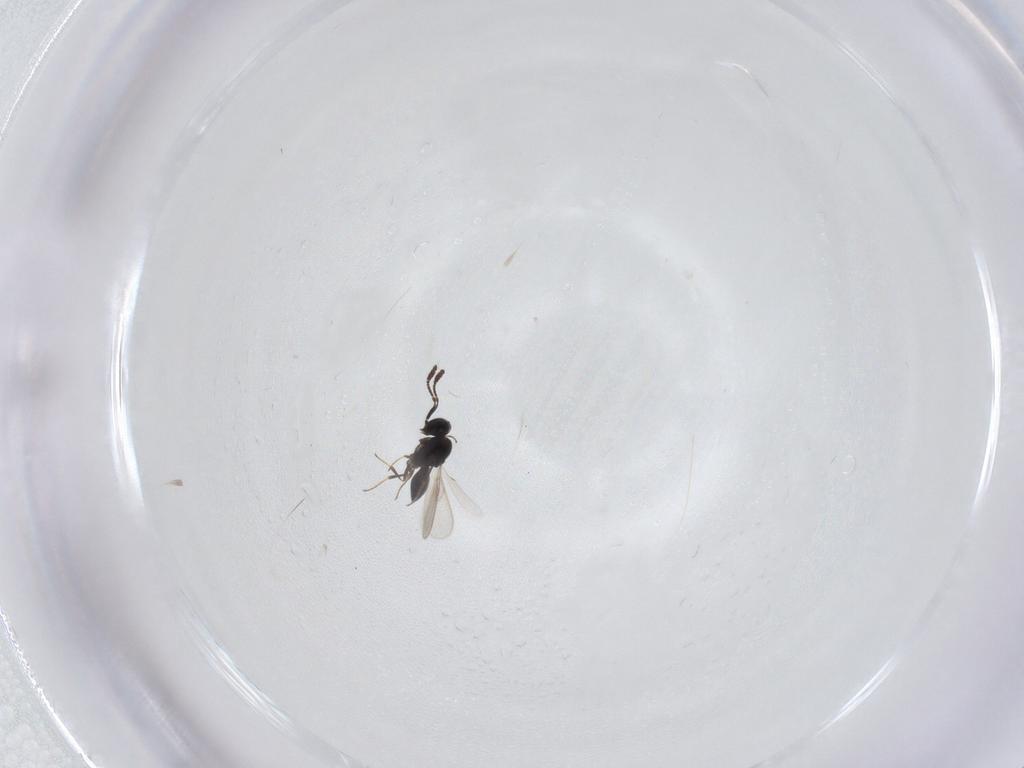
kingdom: Animalia
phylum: Arthropoda
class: Insecta
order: Hymenoptera
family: Scelionidae
